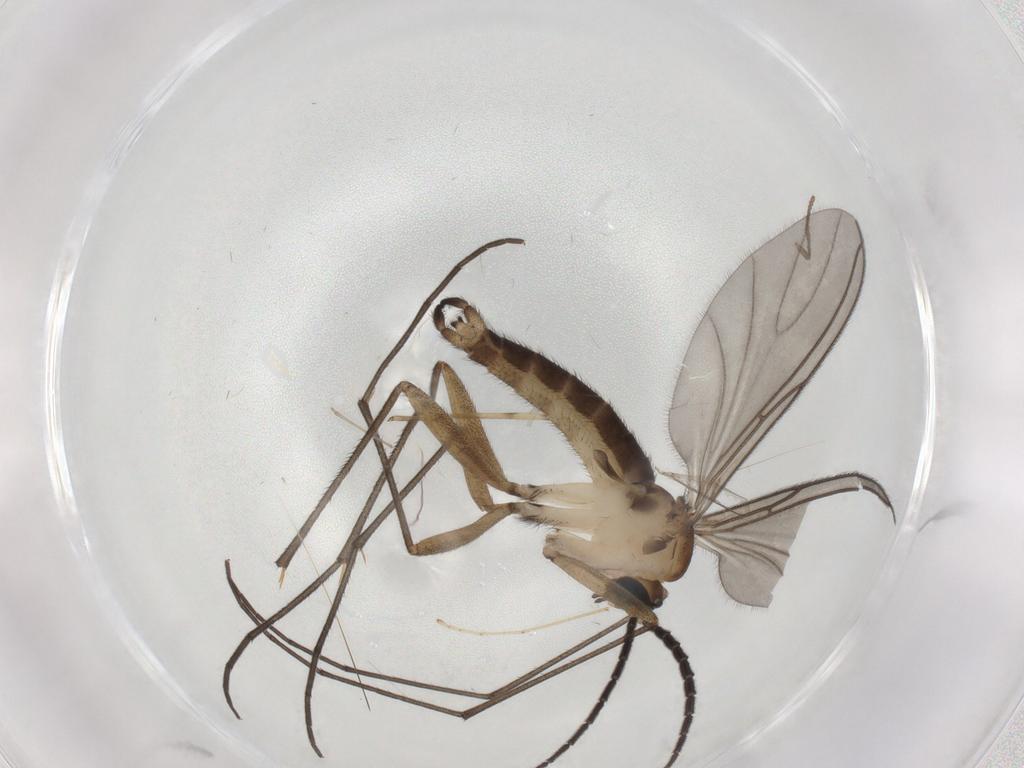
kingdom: Animalia
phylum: Arthropoda
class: Insecta
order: Diptera
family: Sciaridae
